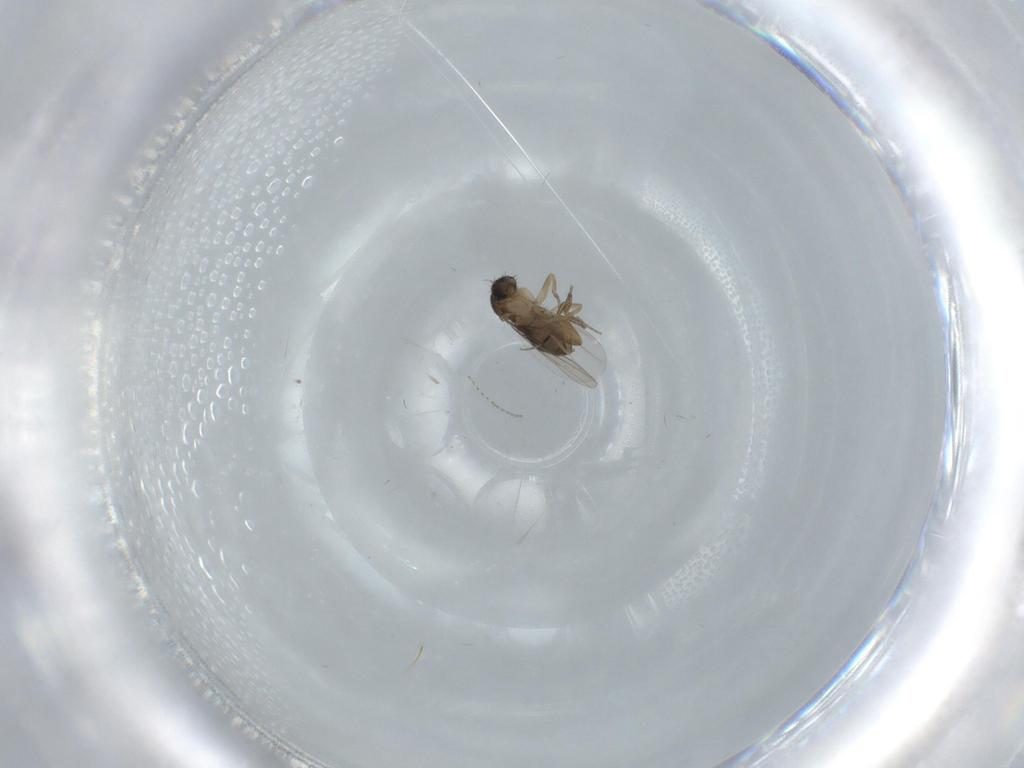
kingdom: Animalia
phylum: Arthropoda
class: Insecta
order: Diptera
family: Phoridae
